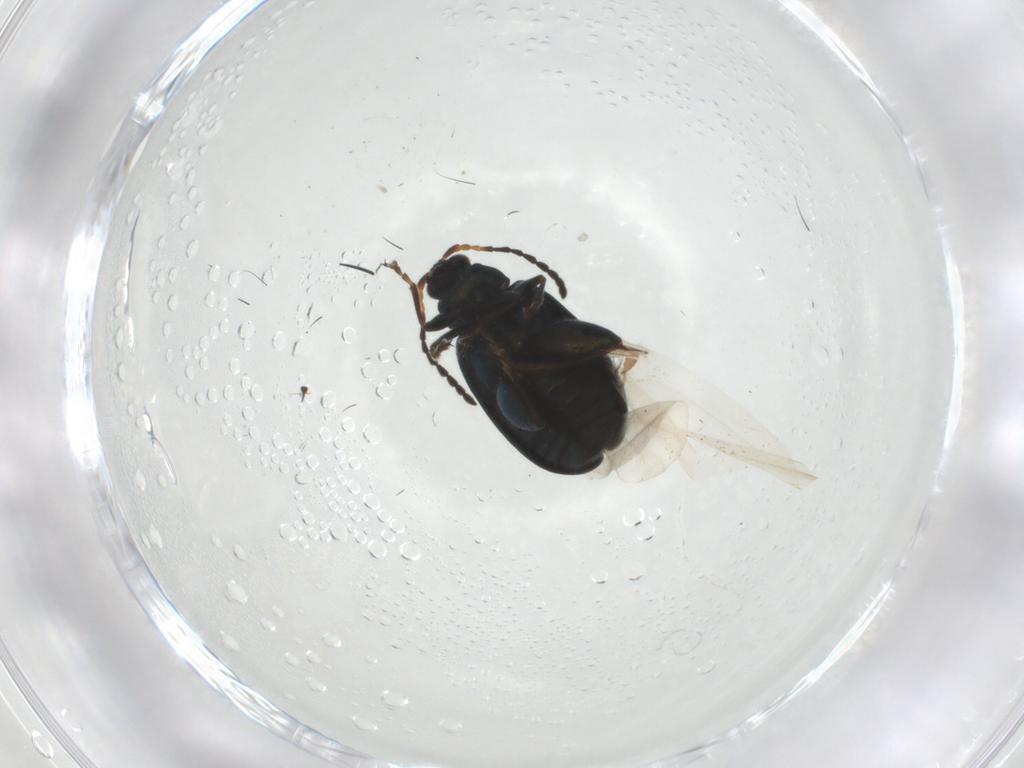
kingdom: Animalia
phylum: Arthropoda
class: Insecta
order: Coleoptera
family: Chrysomelidae
